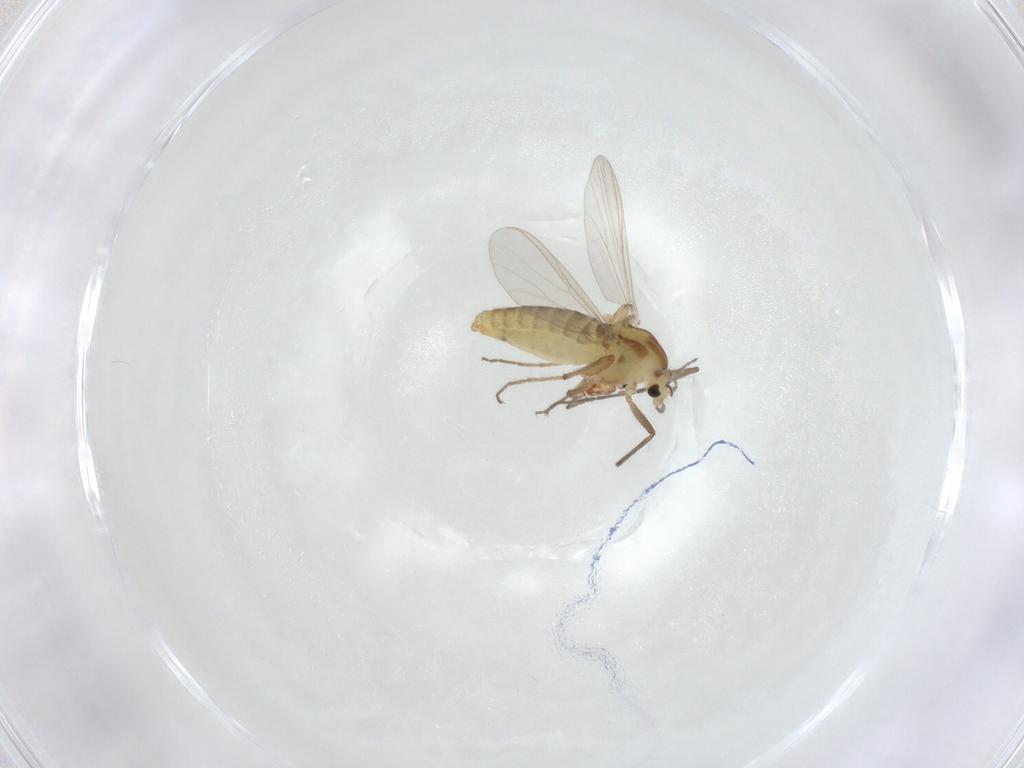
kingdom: Animalia
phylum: Arthropoda
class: Insecta
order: Diptera
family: Chironomidae
